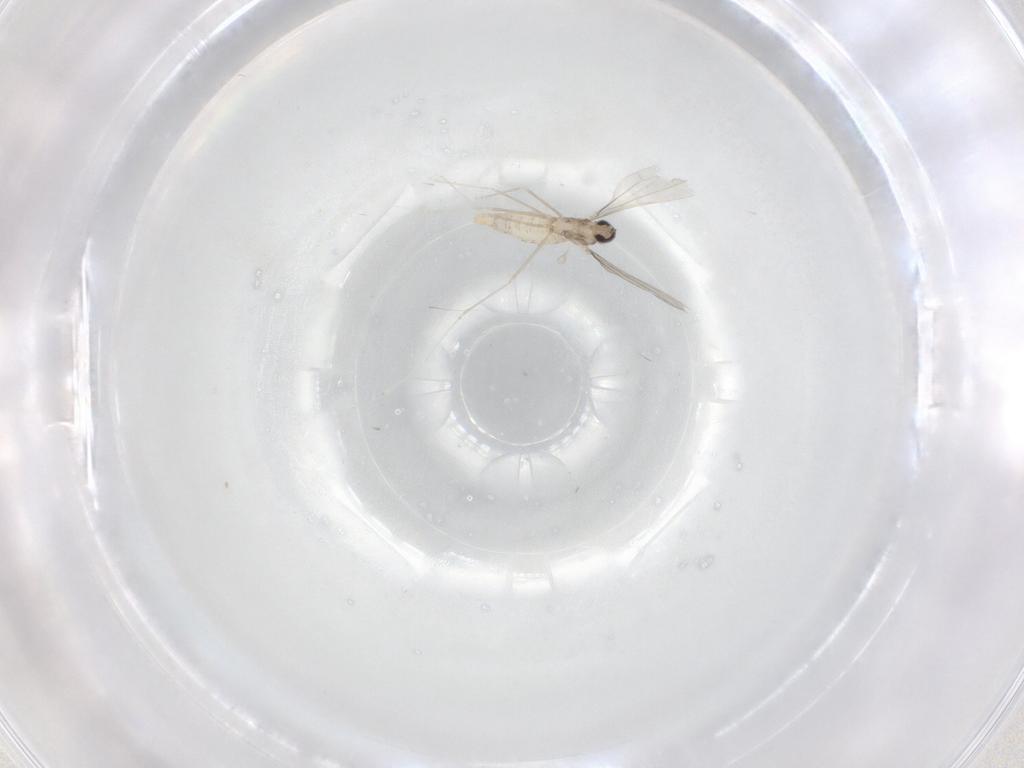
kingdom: Animalia
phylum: Arthropoda
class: Insecta
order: Diptera
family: Cecidomyiidae
